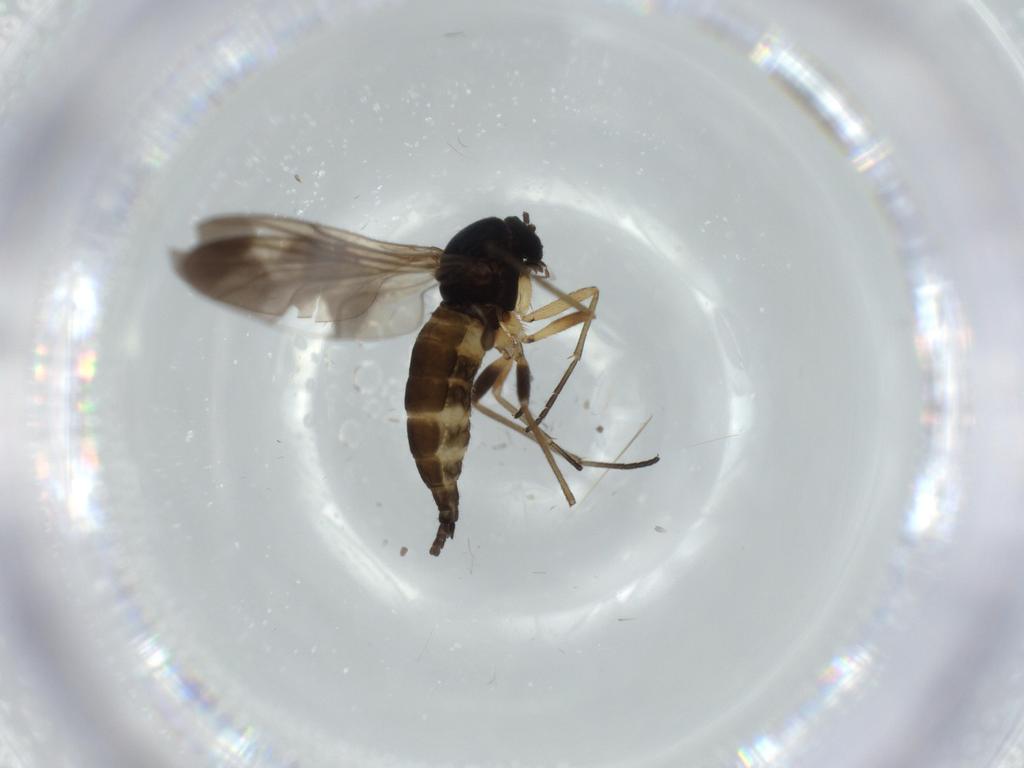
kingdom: Animalia
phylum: Arthropoda
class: Insecta
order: Diptera
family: Sciaridae
